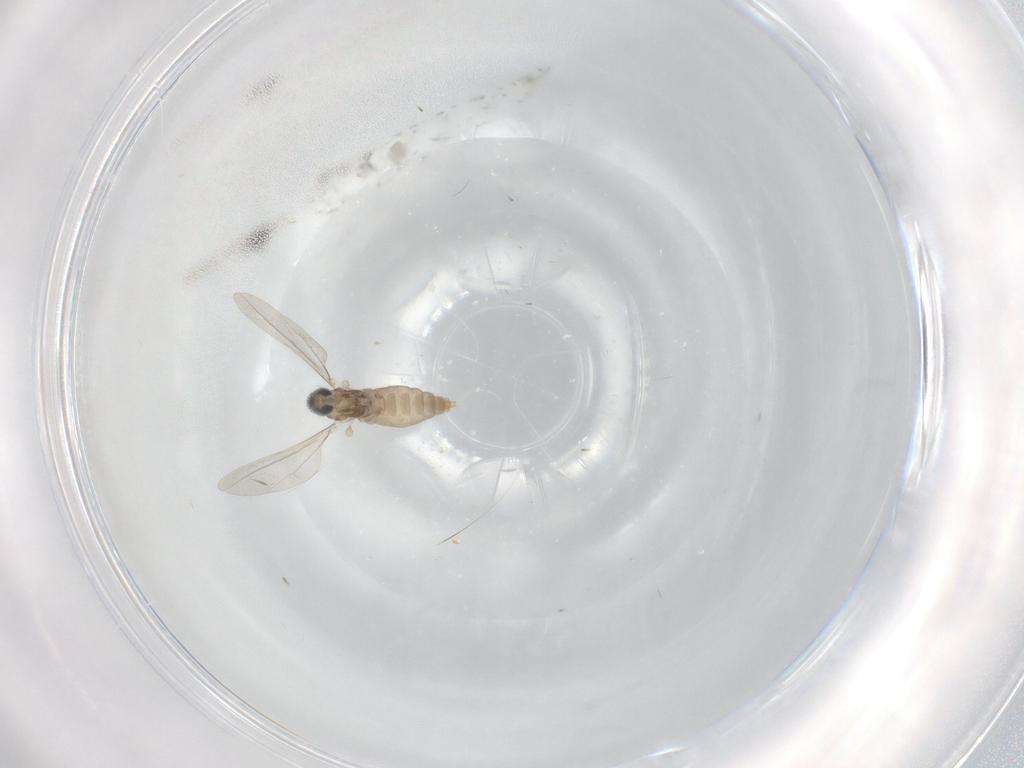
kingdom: Animalia
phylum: Arthropoda
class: Insecta
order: Diptera
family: Cecidomyiidae
